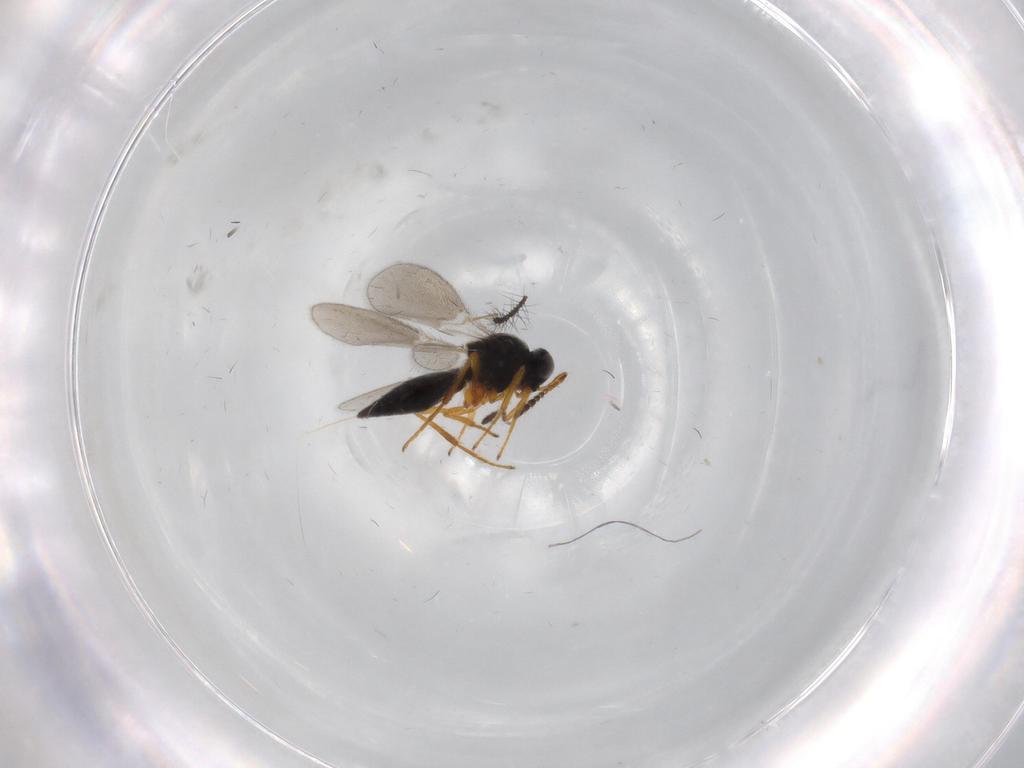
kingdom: Animalia
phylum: Arthropoda
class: Insecta
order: Hymenoptera
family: Platygastridae
